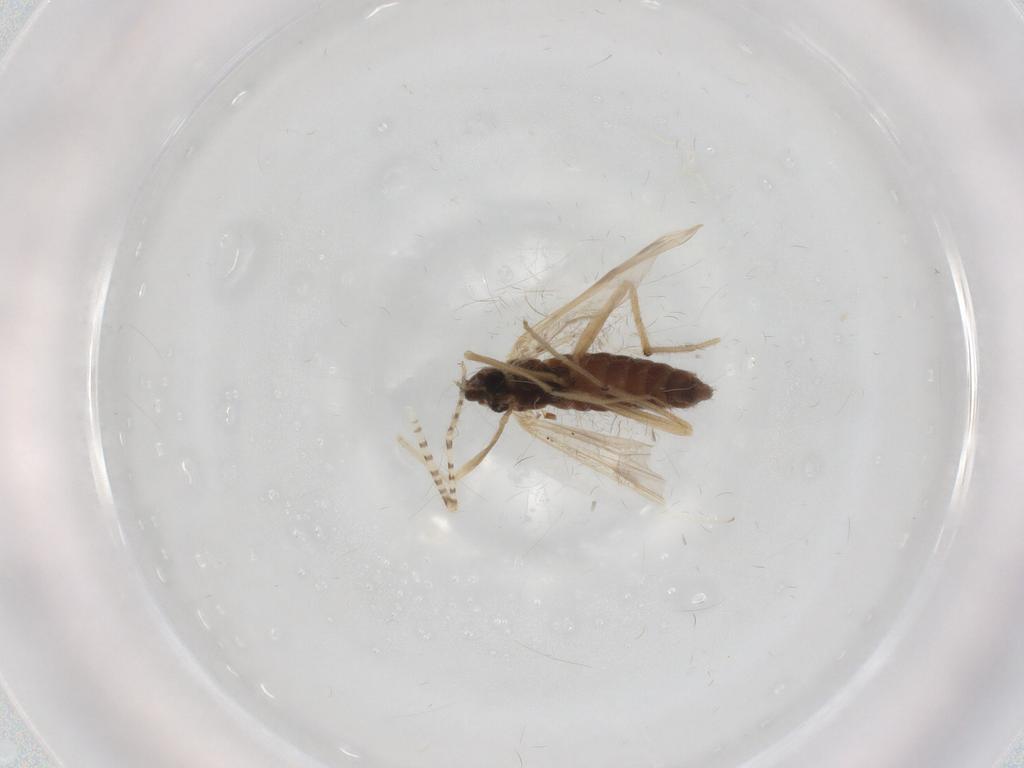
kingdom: Animalia
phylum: Arthropoda
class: Insecta
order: Diptera
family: Chironomidae
